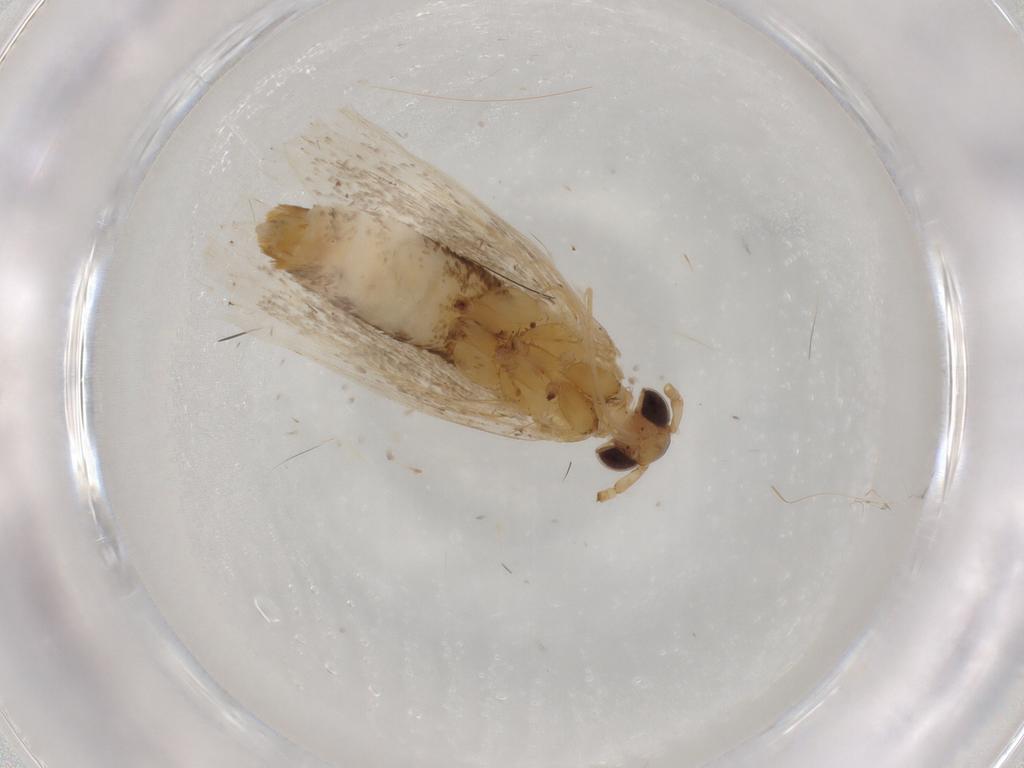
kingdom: Animalia
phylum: Arthropoda
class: Insecta
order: Lepidoptera
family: Lecithoceridae
